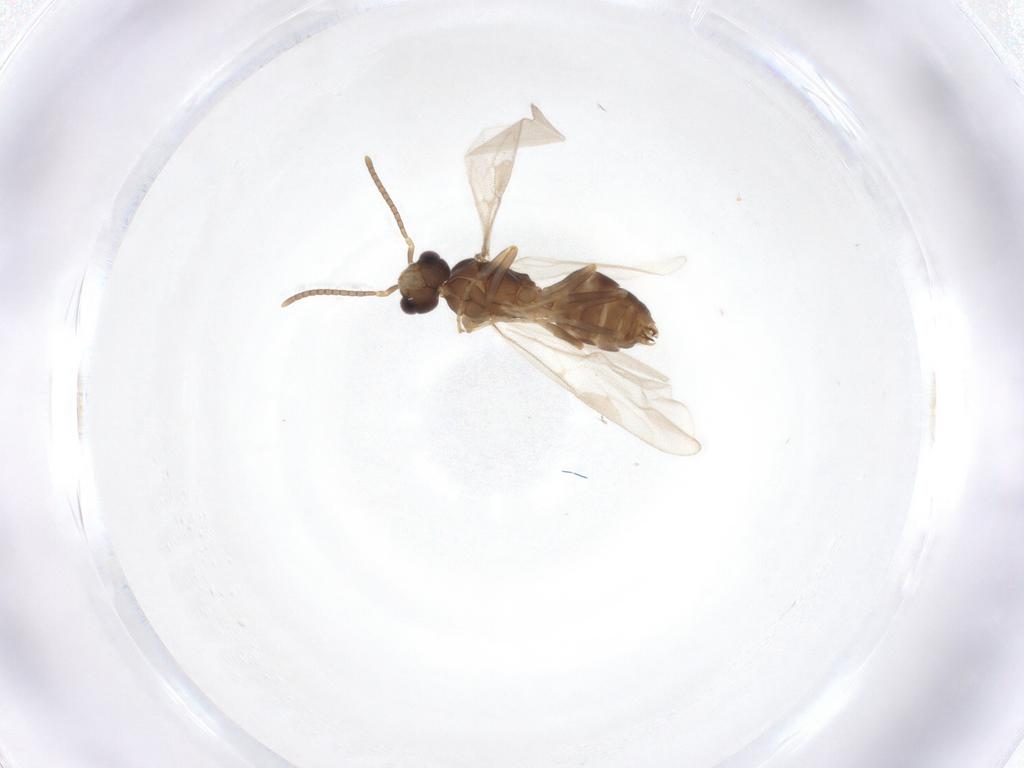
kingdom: Animalia
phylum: Arthropoda
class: Insecta
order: Hymenoptera
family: Formicidae
